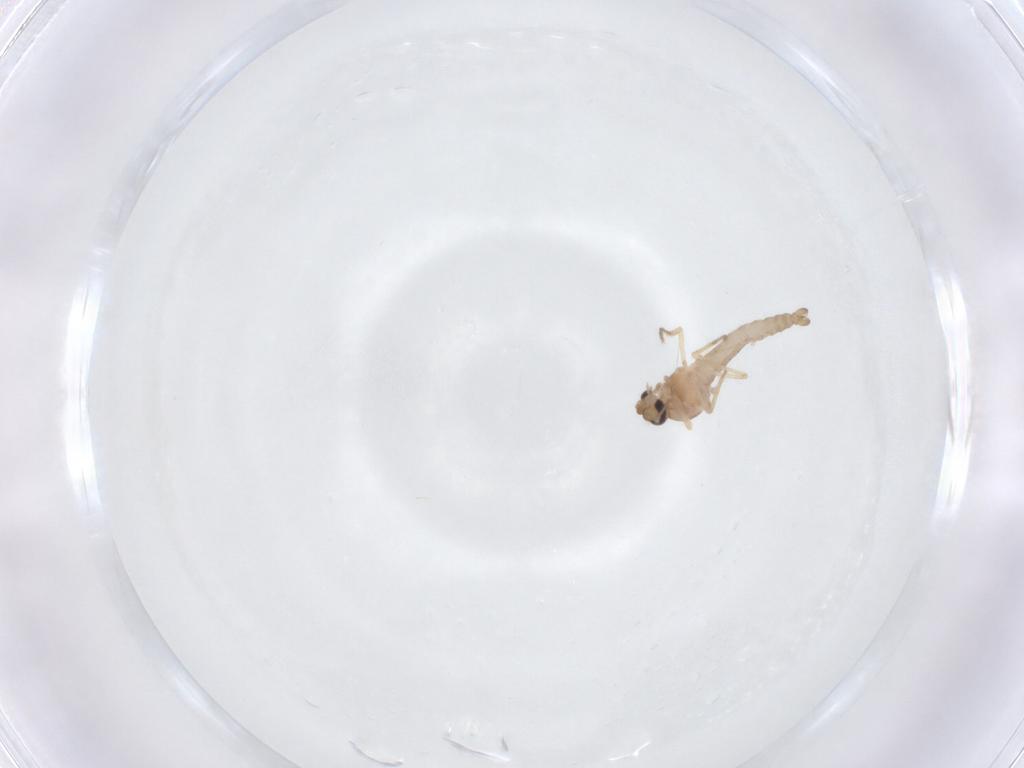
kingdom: Animalia
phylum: Arthropoda
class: Insecta
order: Diptera
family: Ceratopogonidae
